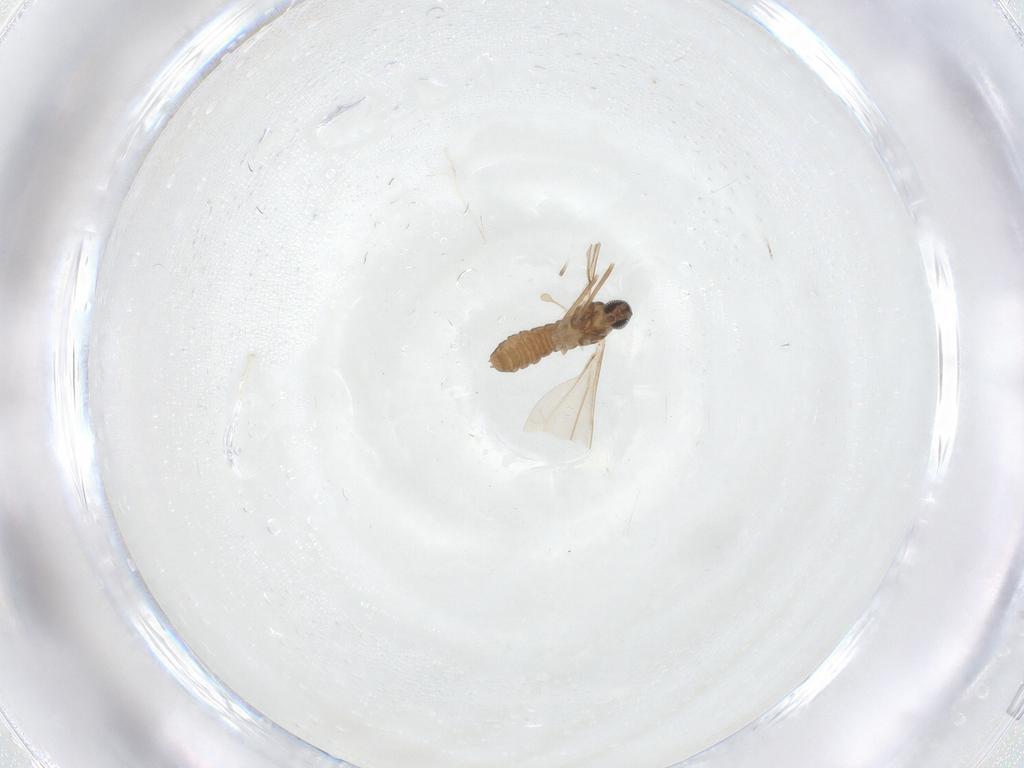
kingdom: Animalia
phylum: Arthropoda
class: Insecta
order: Diptera
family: Cecidomyiidae
